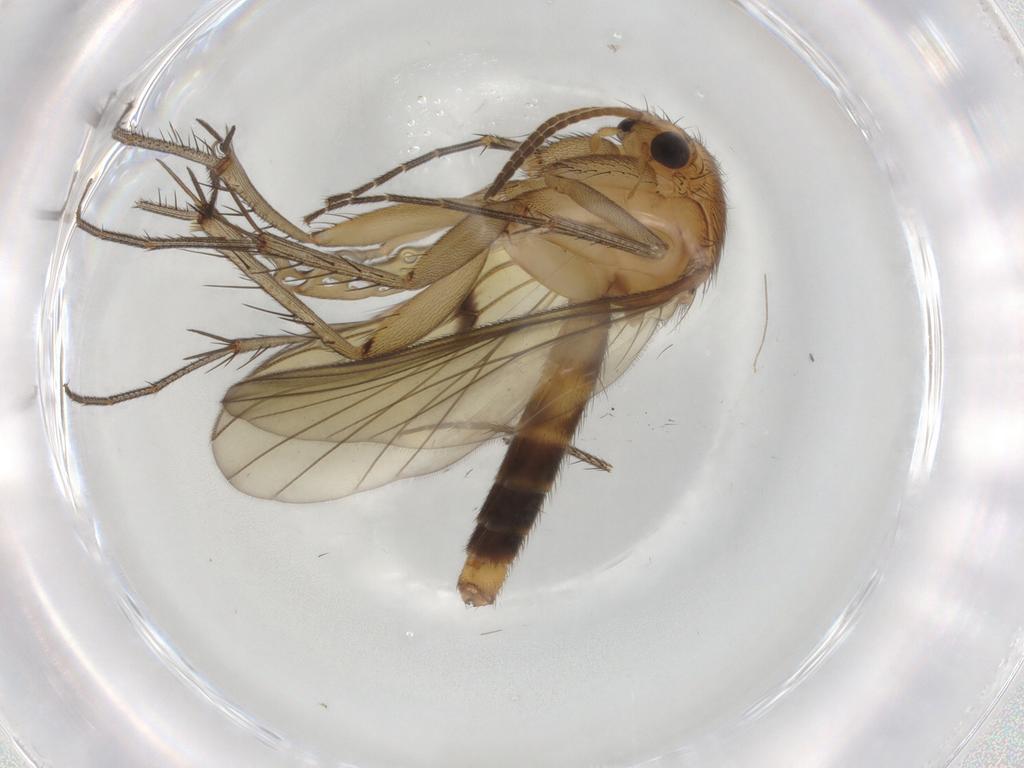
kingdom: Animalia
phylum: Arthropoda
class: Insecta
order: Diptera
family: Mycetophilidae
